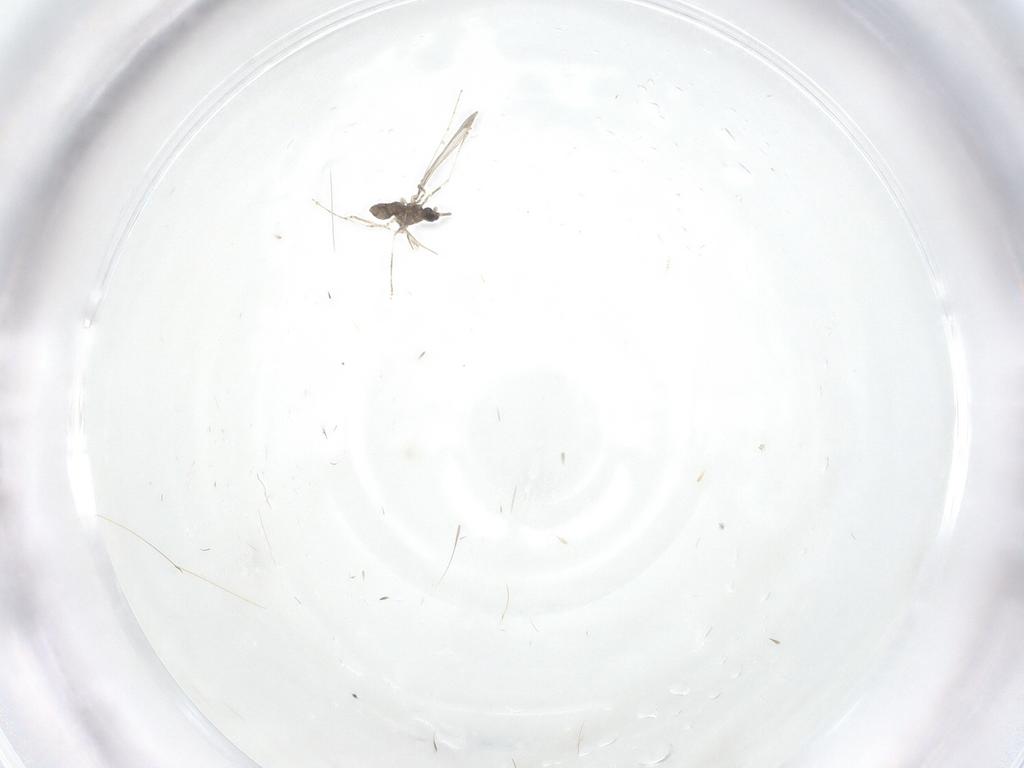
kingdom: Animalia
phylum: Arthropoda
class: Insecta
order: Diptera
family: Cecidomyiidae
